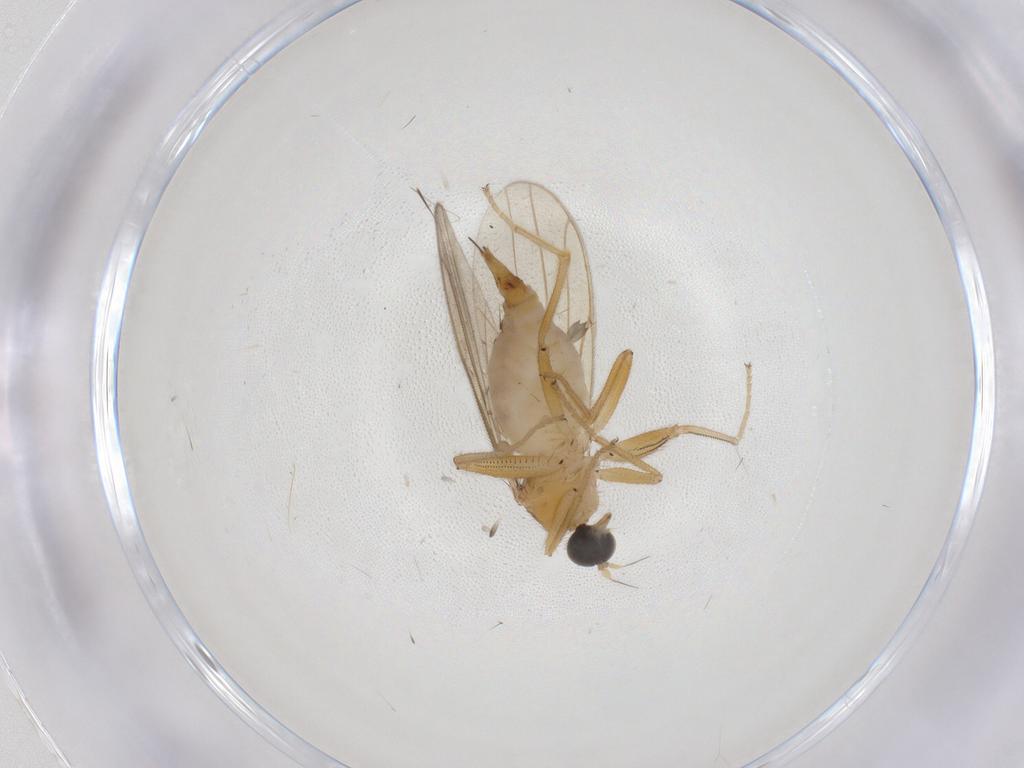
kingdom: Animalia
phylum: Arthropoda
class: Insecta
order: Diptera
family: Hybotidae
